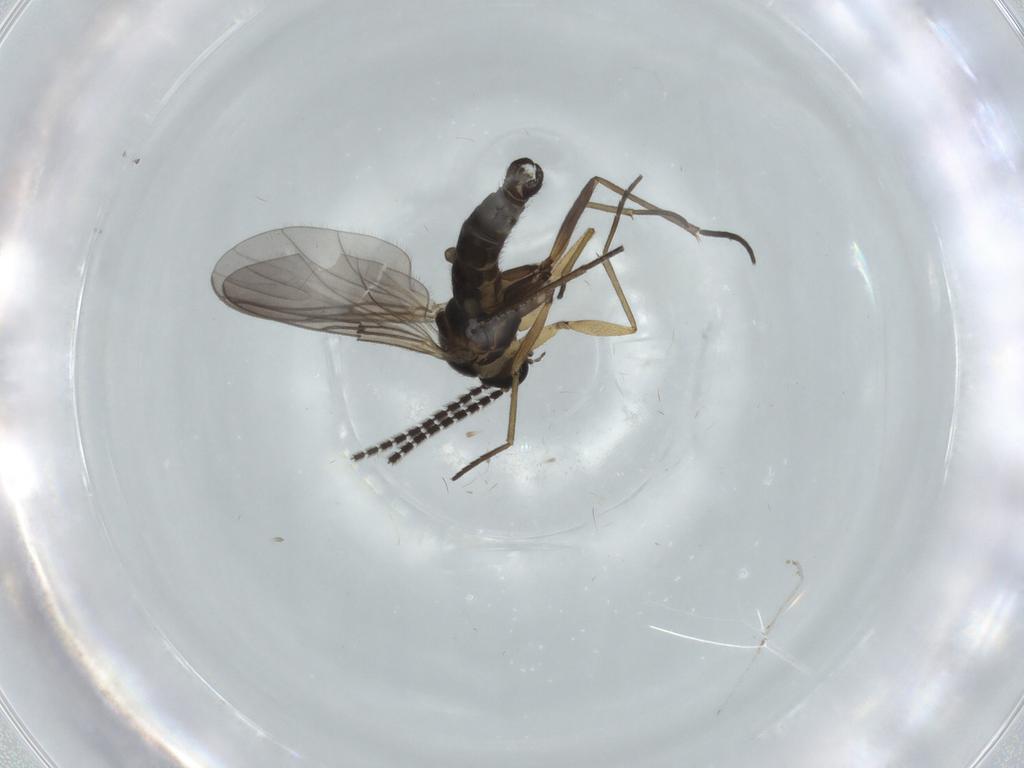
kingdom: Animalia
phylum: Arthropoda
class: Insecta
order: Diptera
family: Sciaridae
